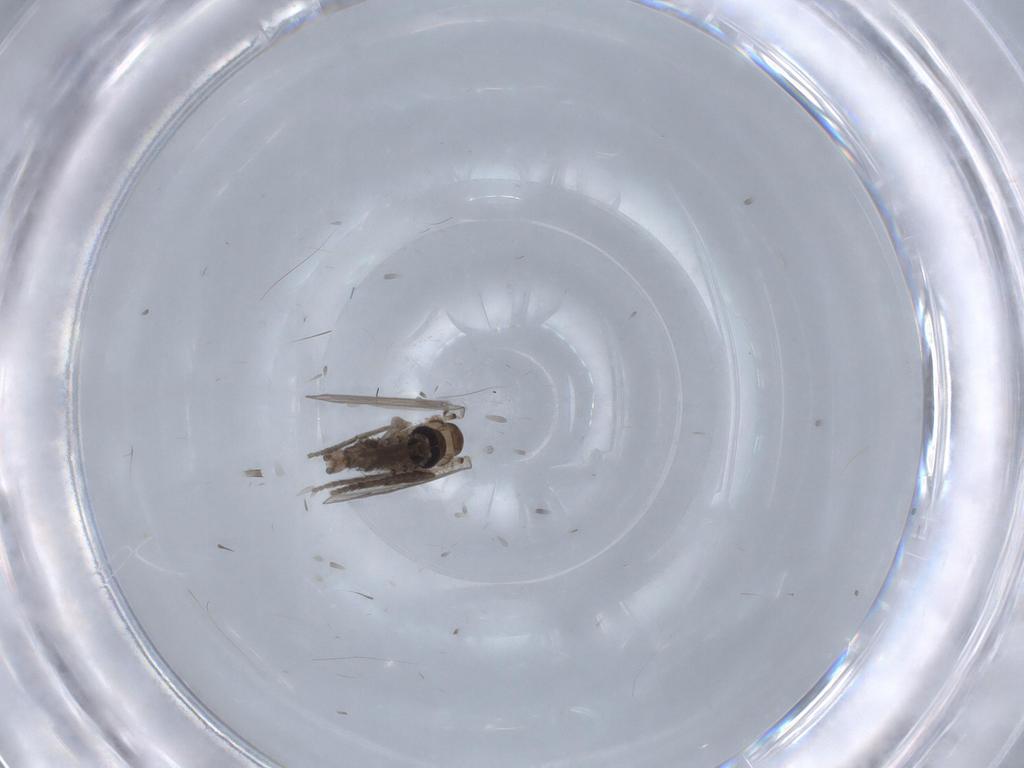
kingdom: Animalia
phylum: Arthropoda
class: Insecta
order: Diptera
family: Drosophilidae
